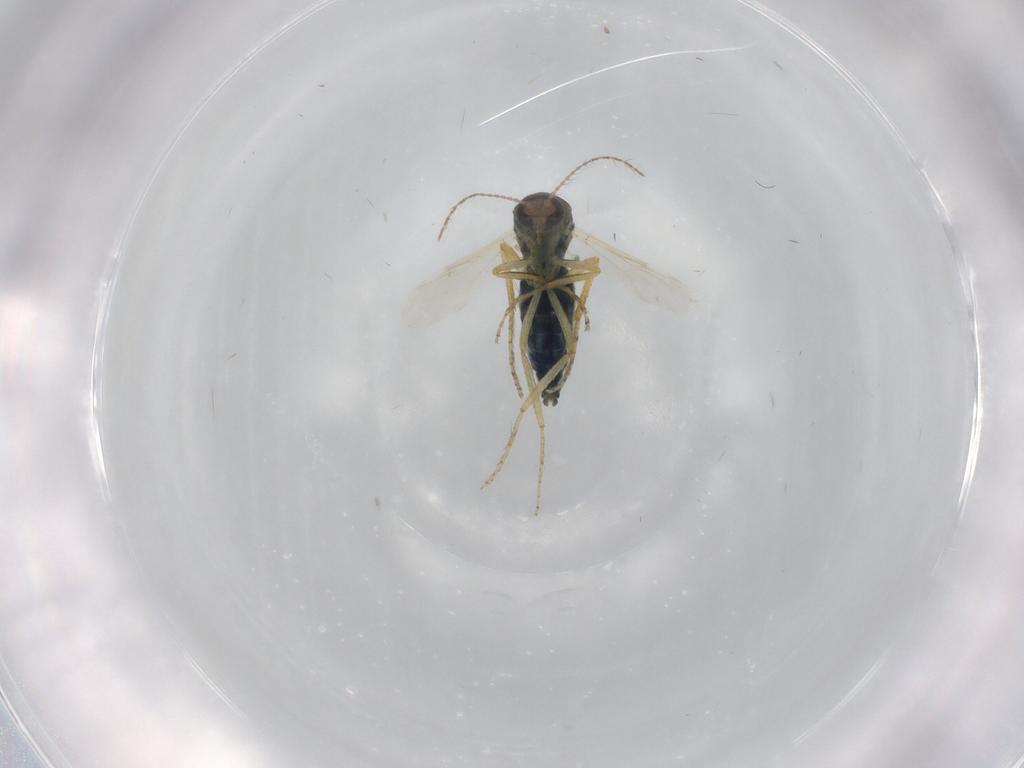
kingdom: Animalia
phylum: Arthropoda
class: Insecta
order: Diptera
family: Ceratopogonidae
